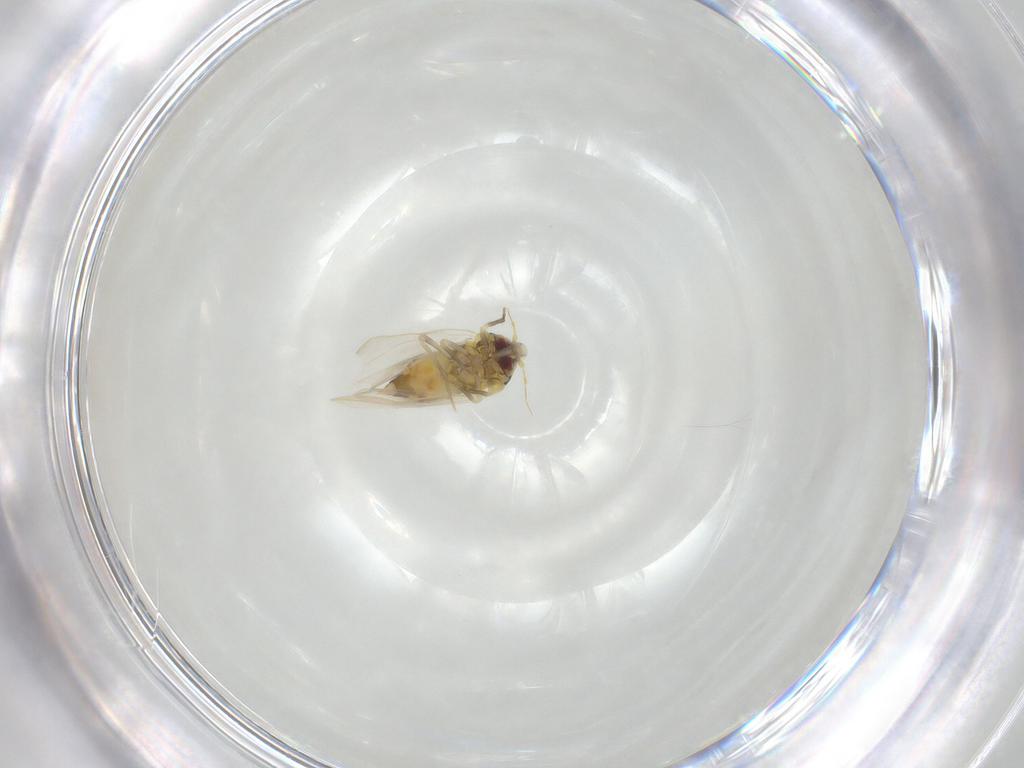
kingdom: Animalia
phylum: Arthropoda
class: Insecta
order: Hemiptera
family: Aleyrodidae
